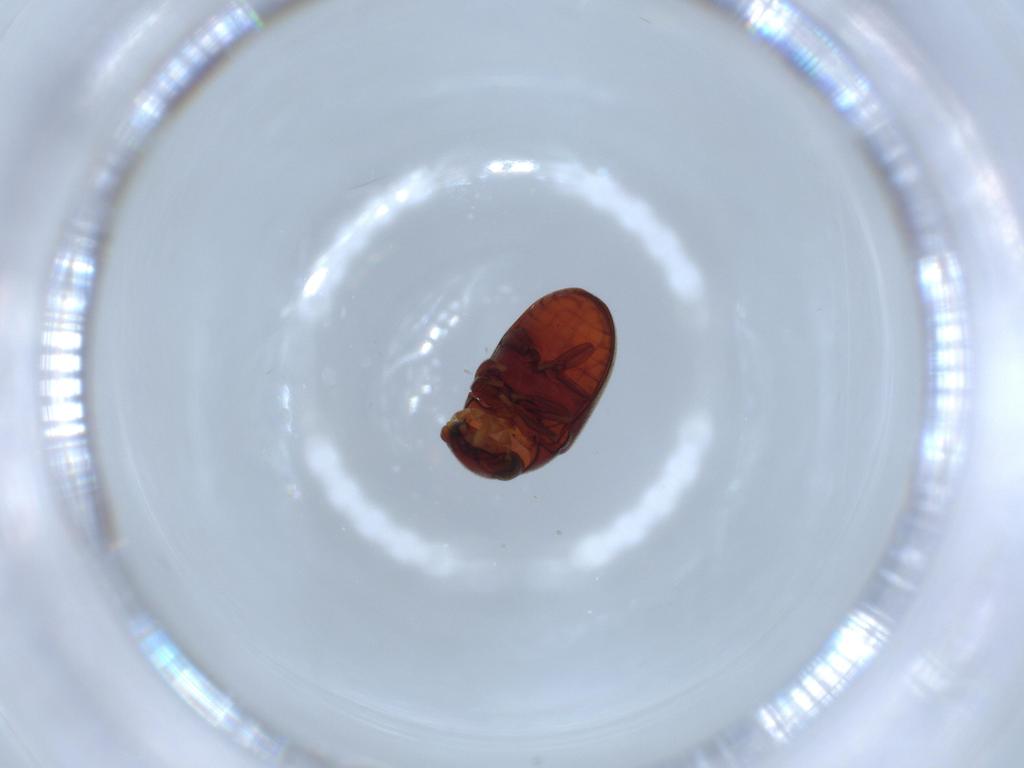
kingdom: Animalia
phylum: Arthropoda
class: Insecta
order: Coleoptera
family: Ptinidae
